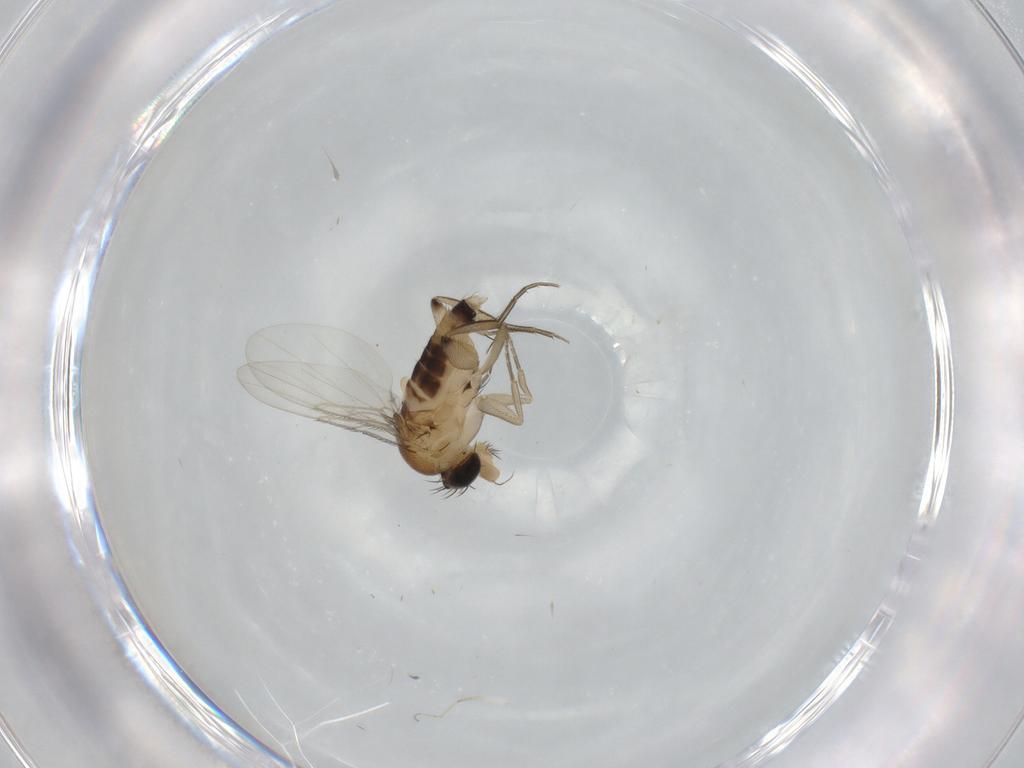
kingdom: Animalia
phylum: Arthropoda
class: Insecta
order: Diptera
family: Phoridae
